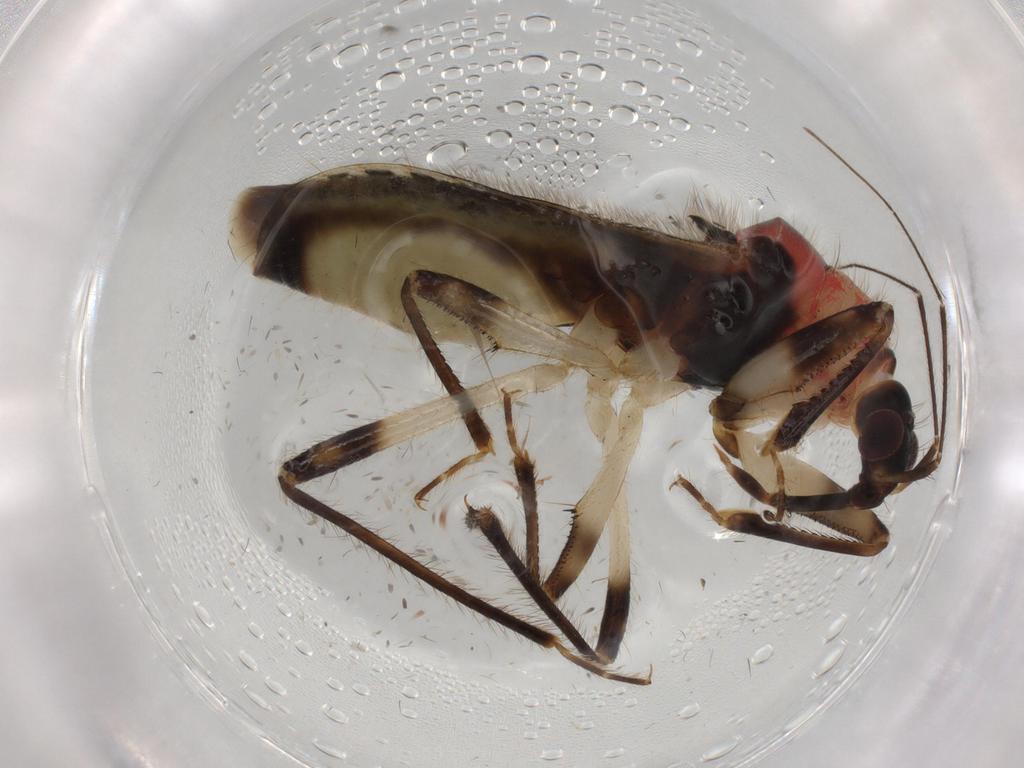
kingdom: Animalia
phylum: Arthropoda
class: Insecta
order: Hemiptera
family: Cicadellidae
